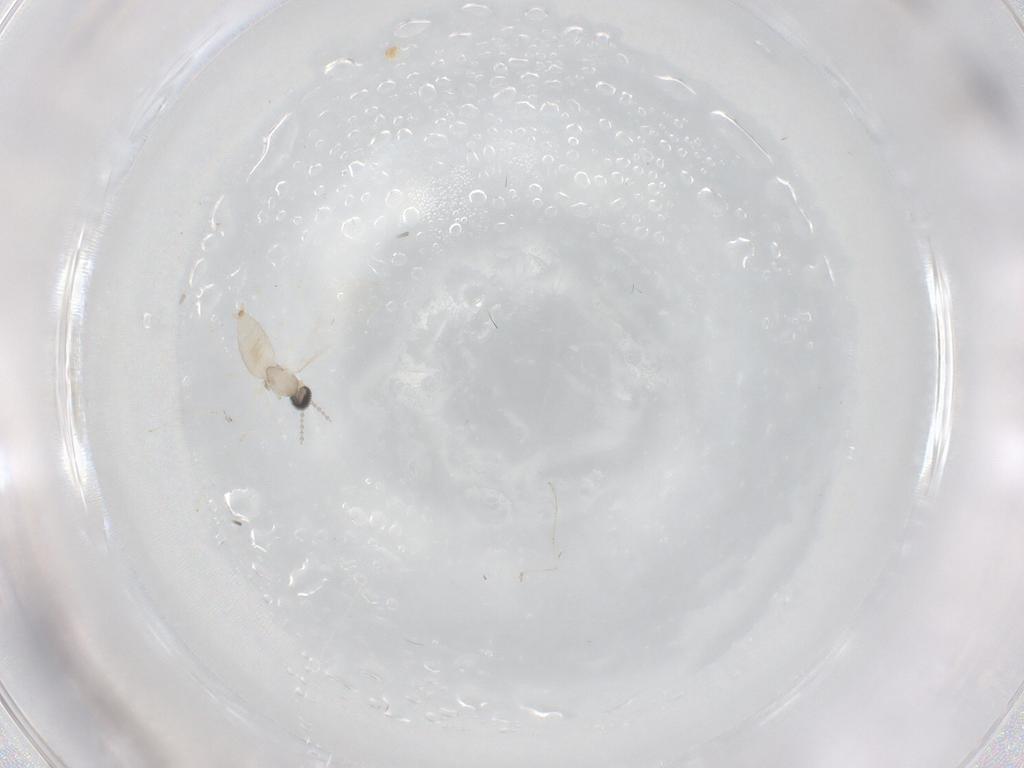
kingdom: Animalia
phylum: Arthropoda
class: Insecta
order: Diptera
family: Cecidomyiidae
